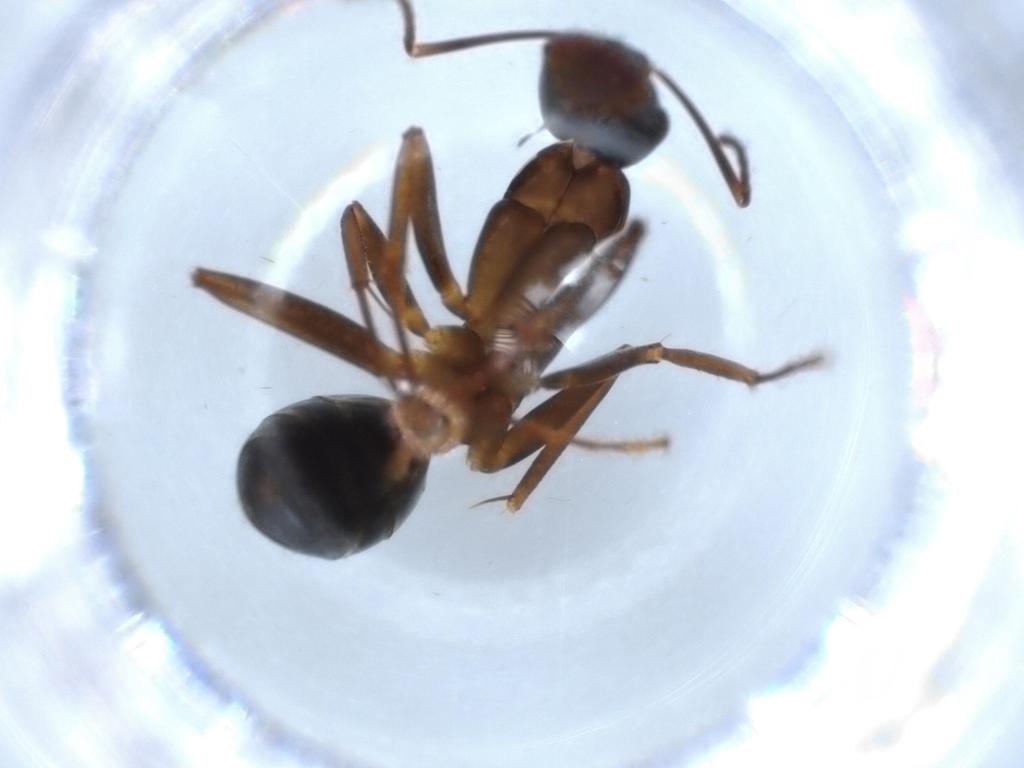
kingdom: Animalia
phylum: Arthropoda
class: Insecta
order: Hymenoptera
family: Formicidae
